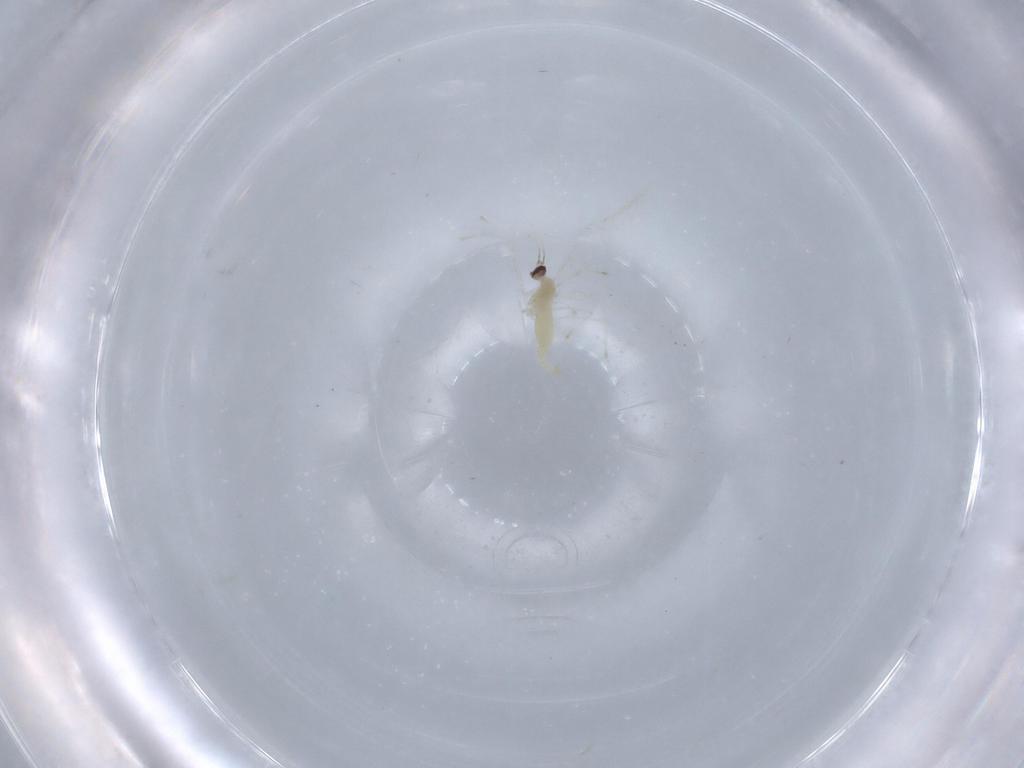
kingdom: Animalia
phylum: Arthropoda
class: Insecta
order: Diptera
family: Cecidomyiidae
